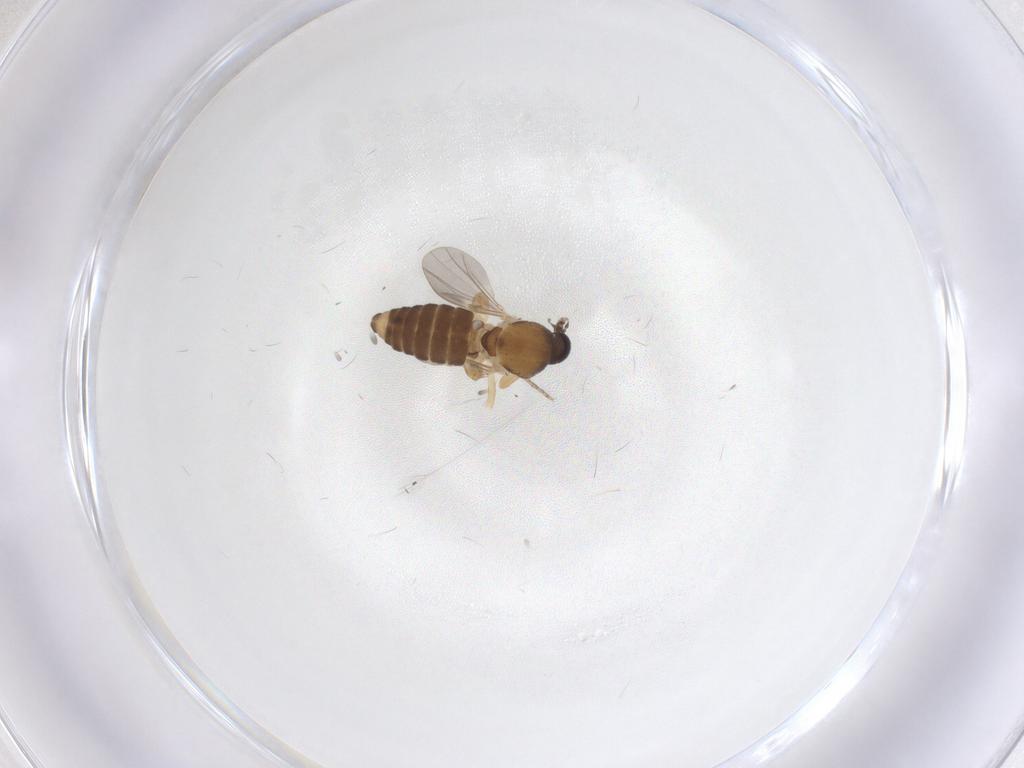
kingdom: Animalia
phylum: Arthropoda
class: Insecta
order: Diptera
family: Ceratopogonidae
